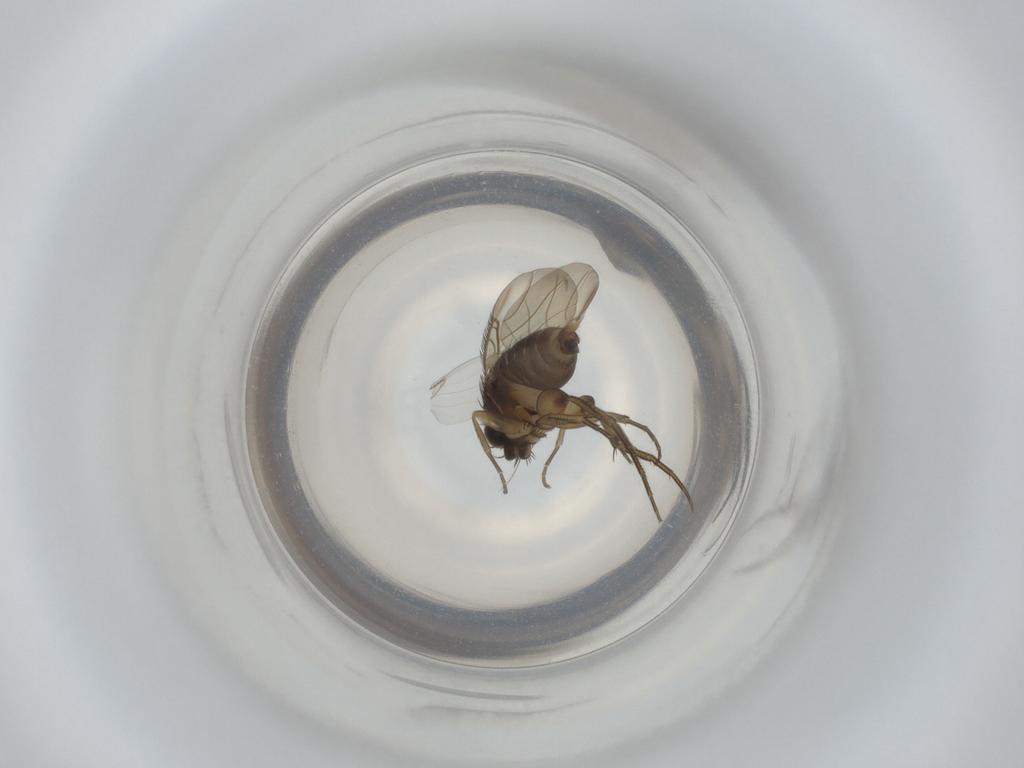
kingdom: Animalia
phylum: Arthropoda
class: Insecta
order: Diptera
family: Phoridae
